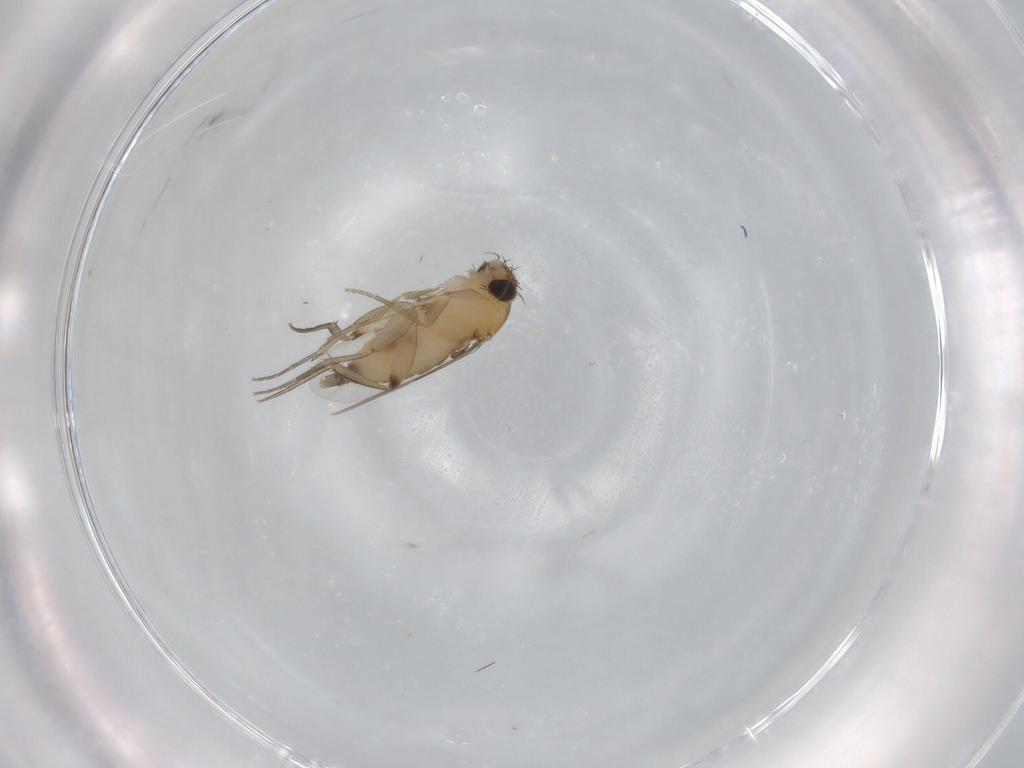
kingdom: Animalia
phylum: Arthropoda
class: Insecta
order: Diptera
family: Phoridae
